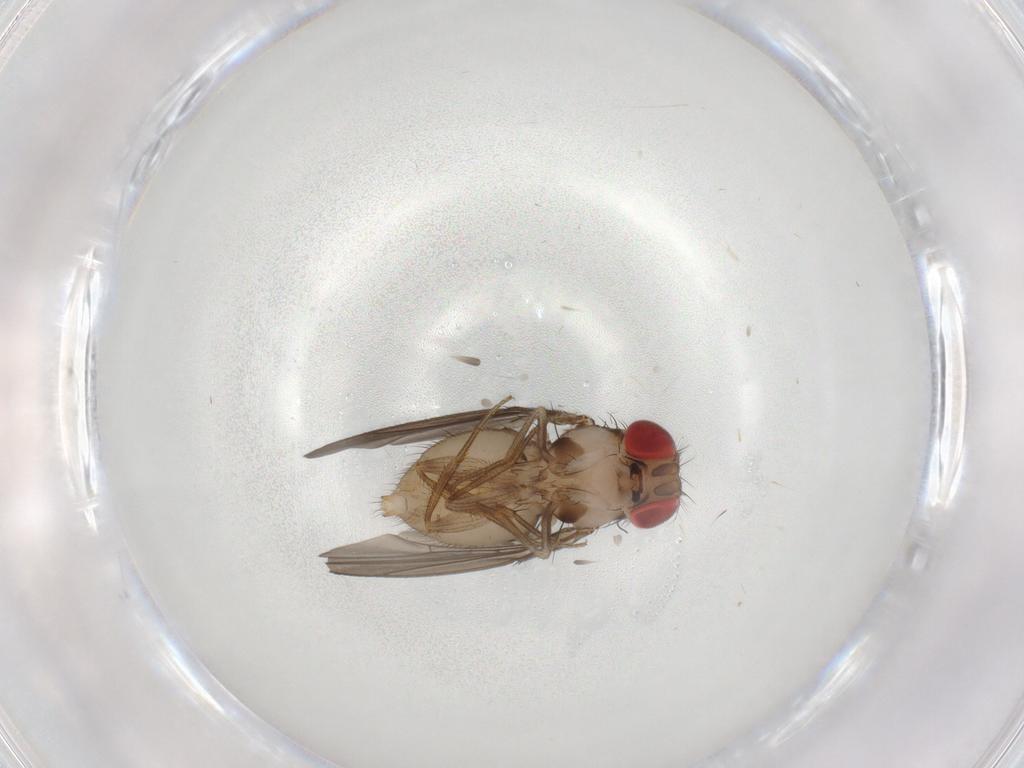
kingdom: Animalia
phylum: Arthropoda
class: Insecta
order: Diptera
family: Drosophilidae
